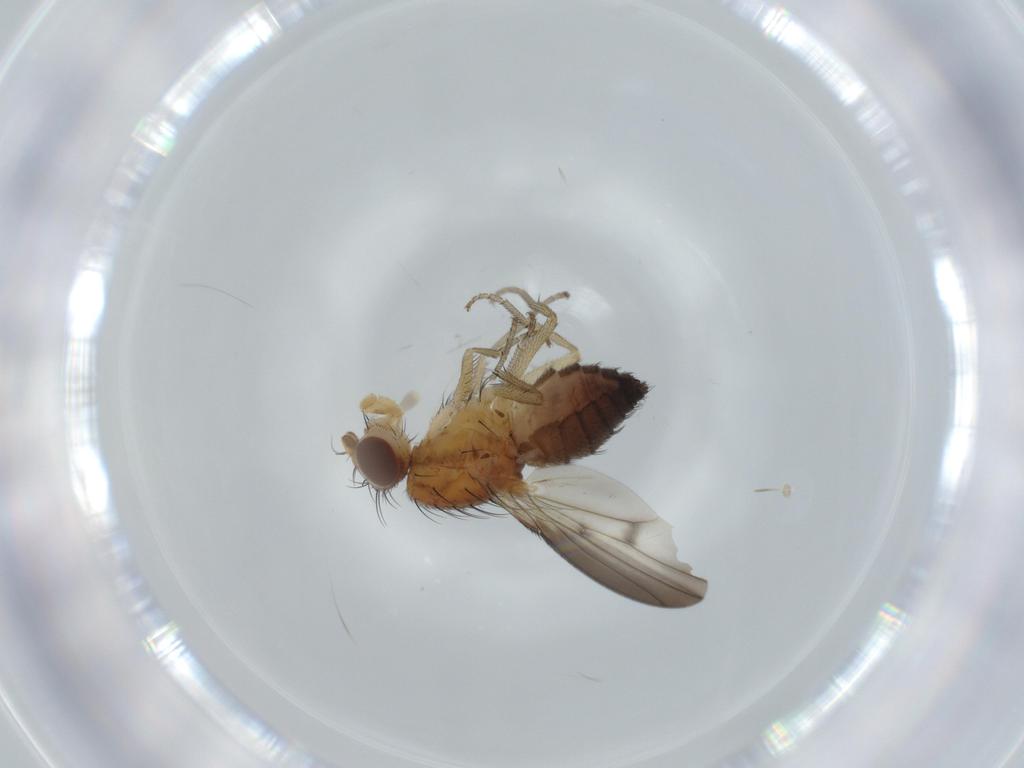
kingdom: Animalia
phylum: Arthropoda
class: Insecta
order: Diptera
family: Heleomyzidae
